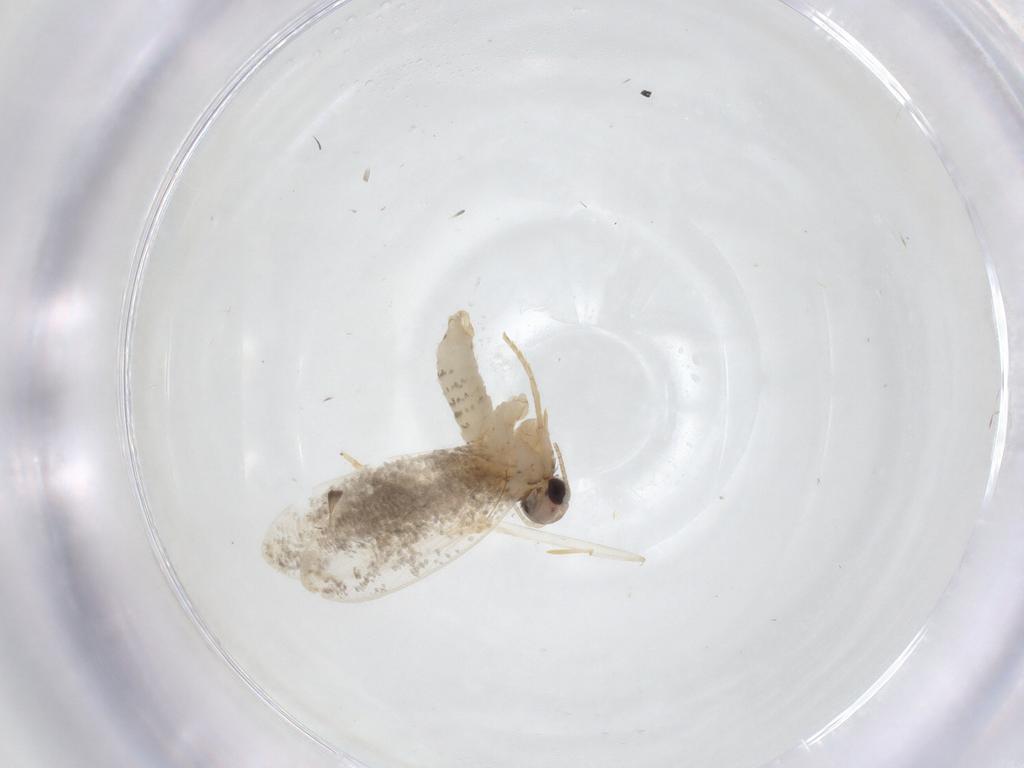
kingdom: Animalia
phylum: Arthropoda
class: Insecta
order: Lepidoptera
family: Oecophoridae
